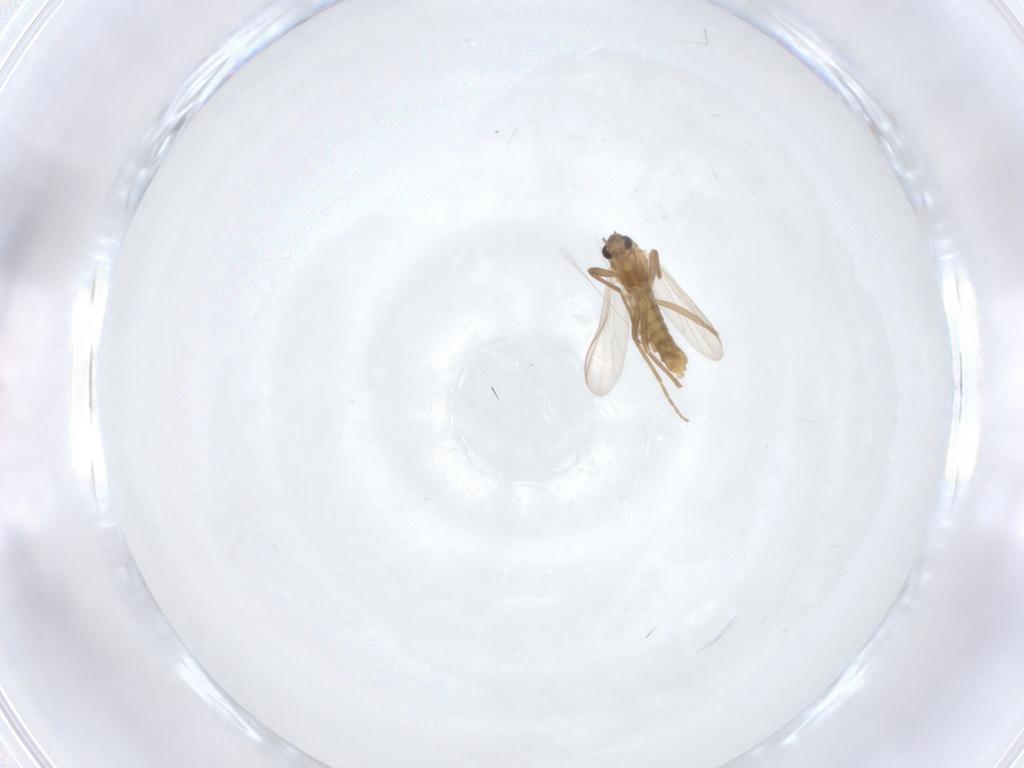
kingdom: Animalia
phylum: Arthropoda
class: Insecta
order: Diptera
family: Chironomidae
